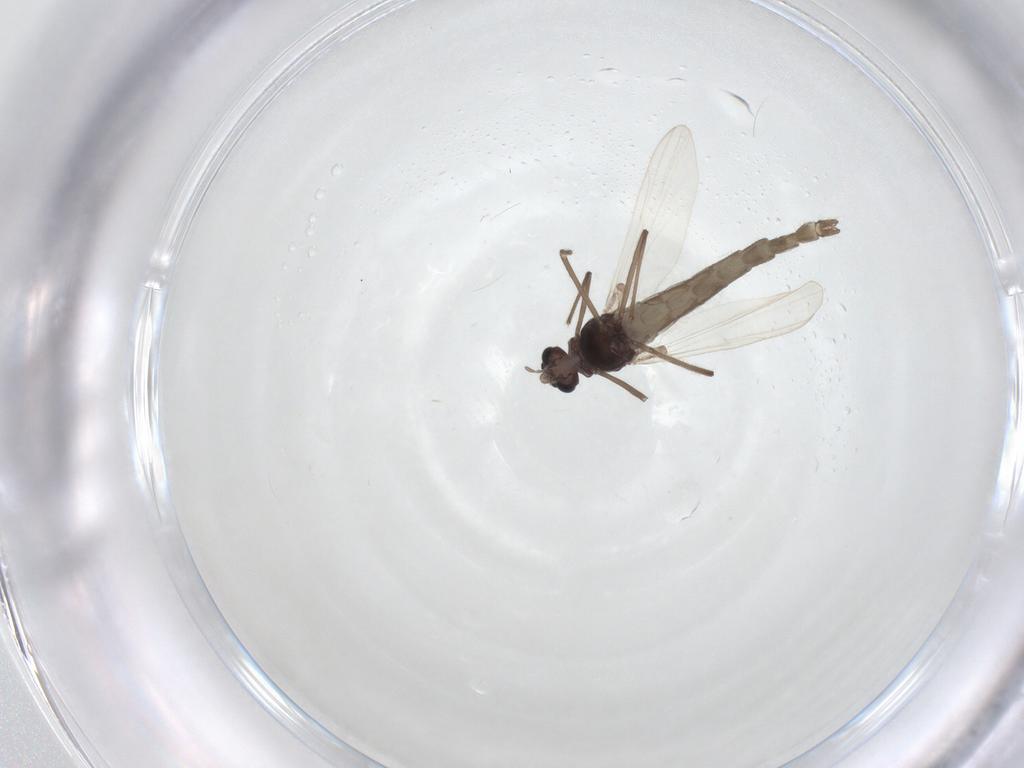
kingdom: Animalia
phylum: Arthropoda
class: Insecta
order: Diptera
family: Chironomidae
